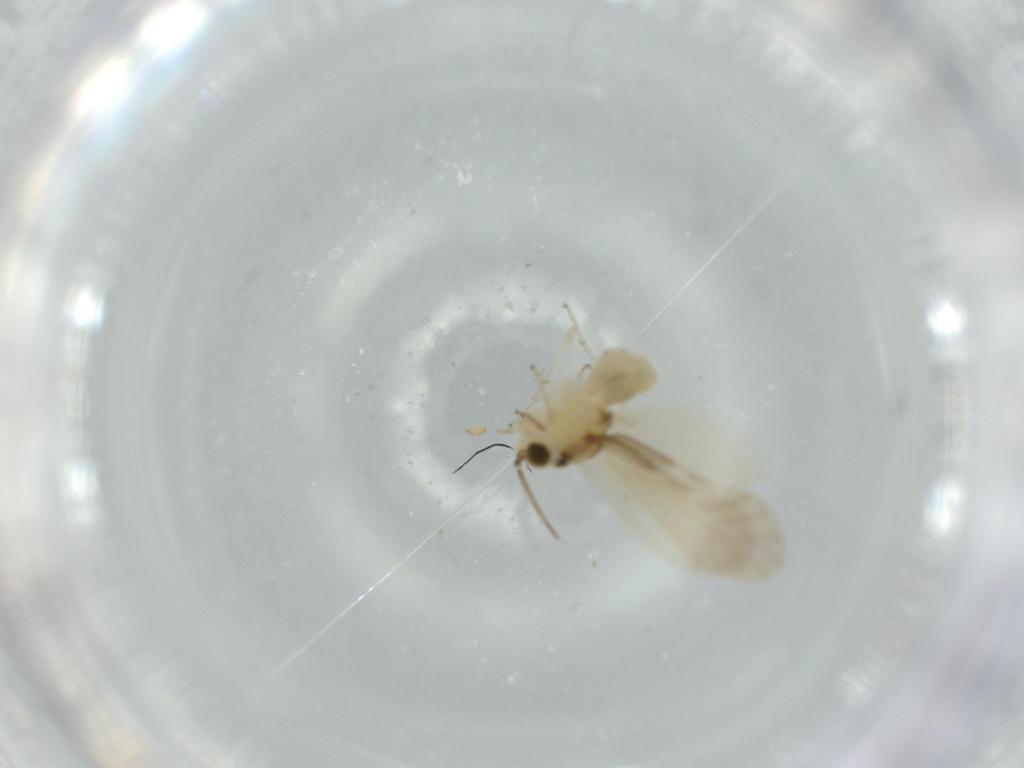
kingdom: Animalia
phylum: Arthropoda
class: Insecta
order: Psocodea
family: Caeciliusidae
